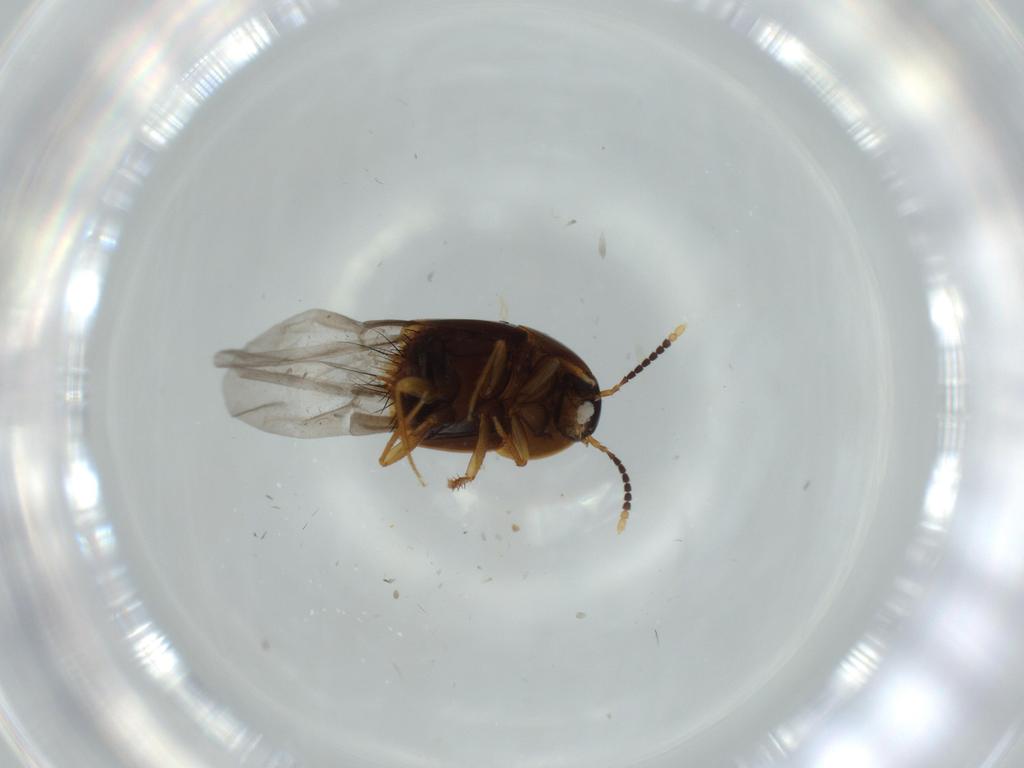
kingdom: Animalia
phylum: Arthropoda
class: Insecta
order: Coleoptera
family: Staphylinidae
